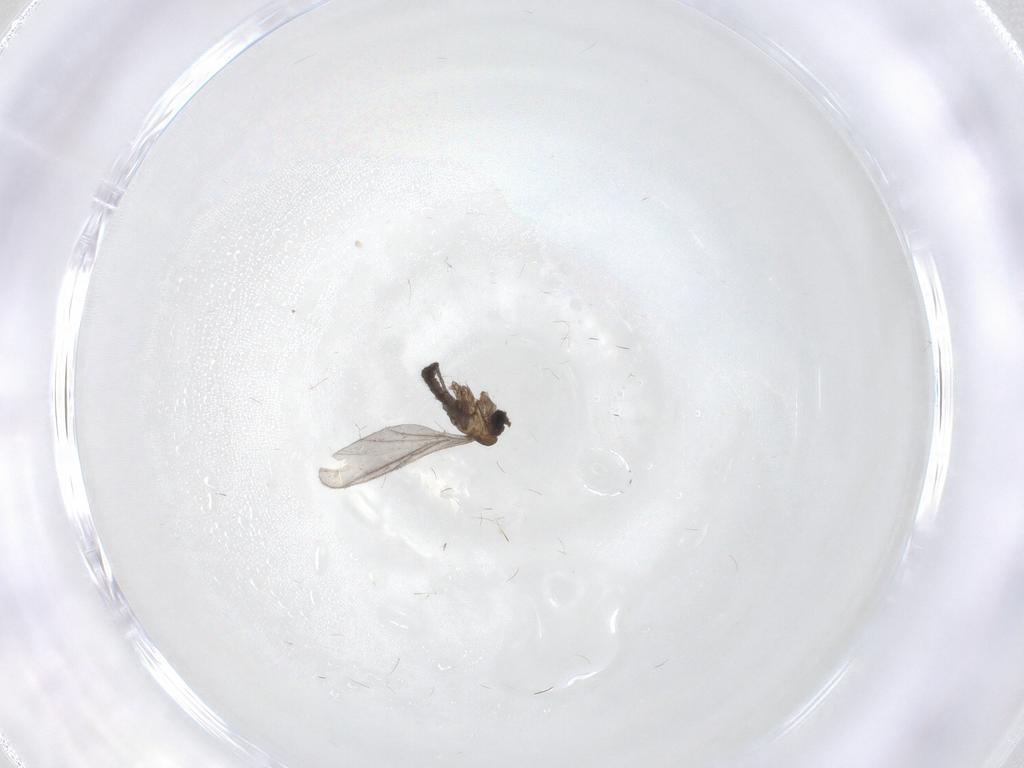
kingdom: Animalia
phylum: Arthropoda
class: Insecta
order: Diptera
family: Sciaridae
